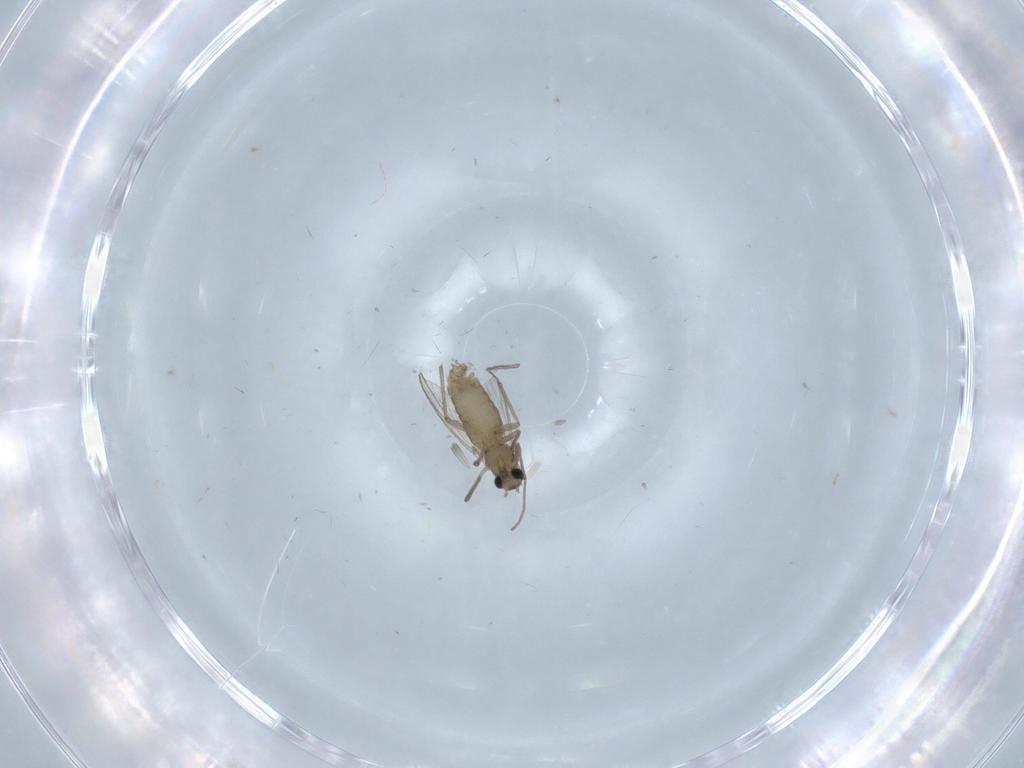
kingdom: Animalia
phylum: Arthropoda
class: Insecta
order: Diptera
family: Chironomidae
